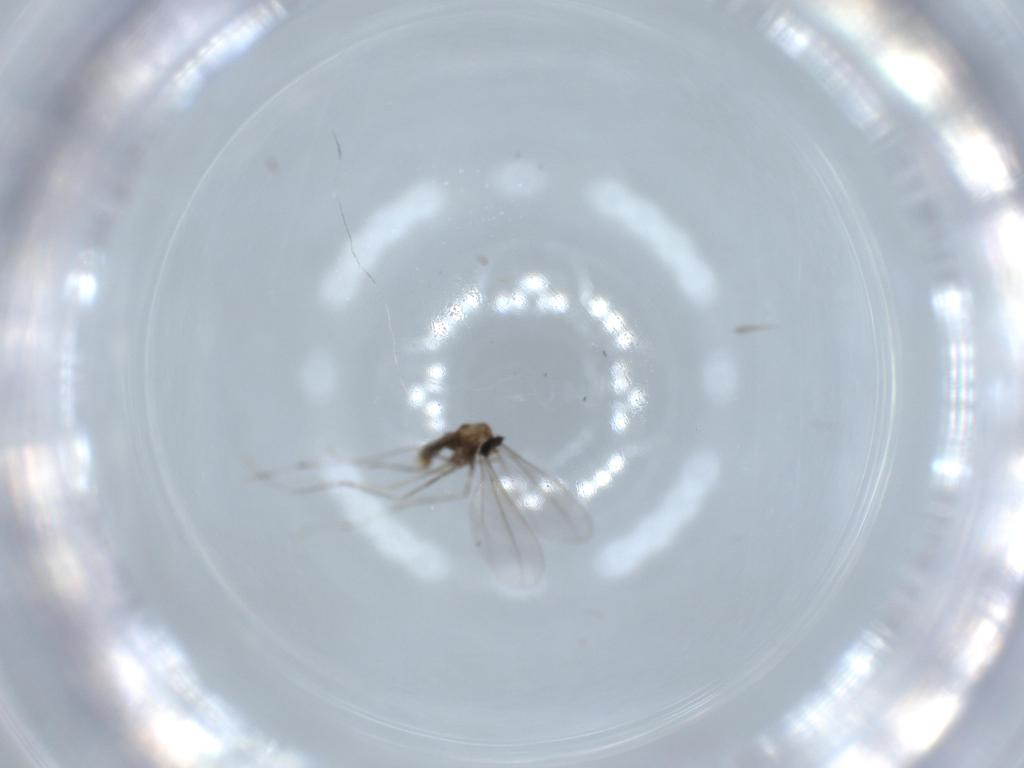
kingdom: Animalia
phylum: Arthropoda
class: Insecta
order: Diptera
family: Cecidomyiidae
